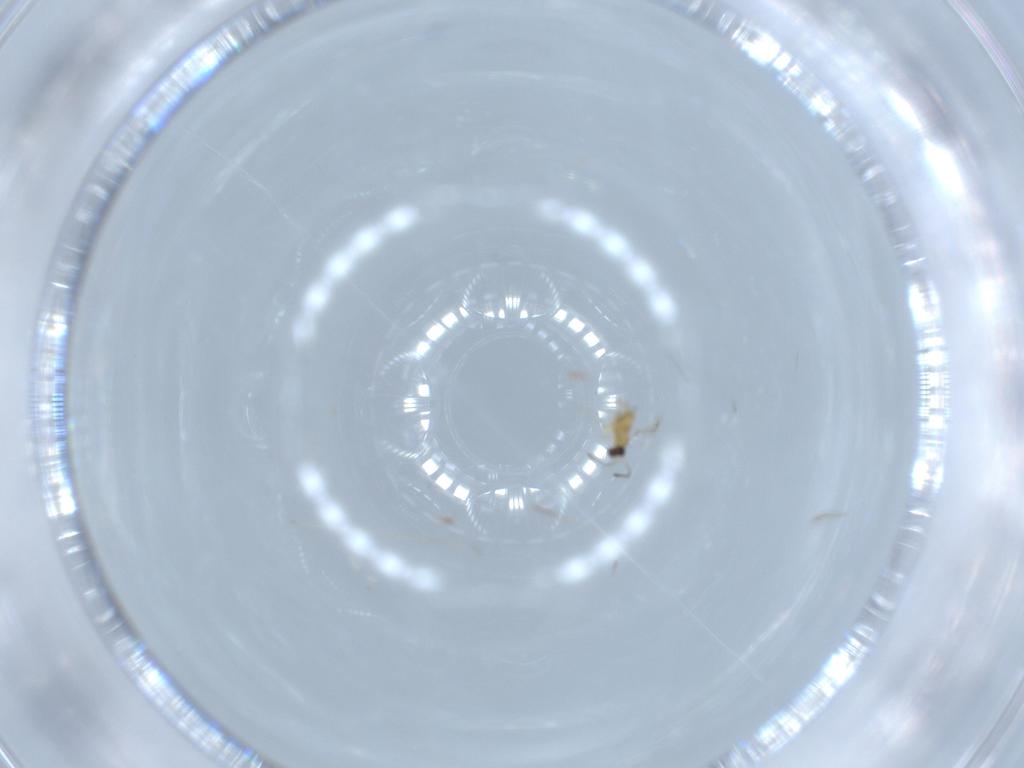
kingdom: Animalia
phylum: Arthropoda
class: Insecta
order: Hymenoptera
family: Mymaridae
